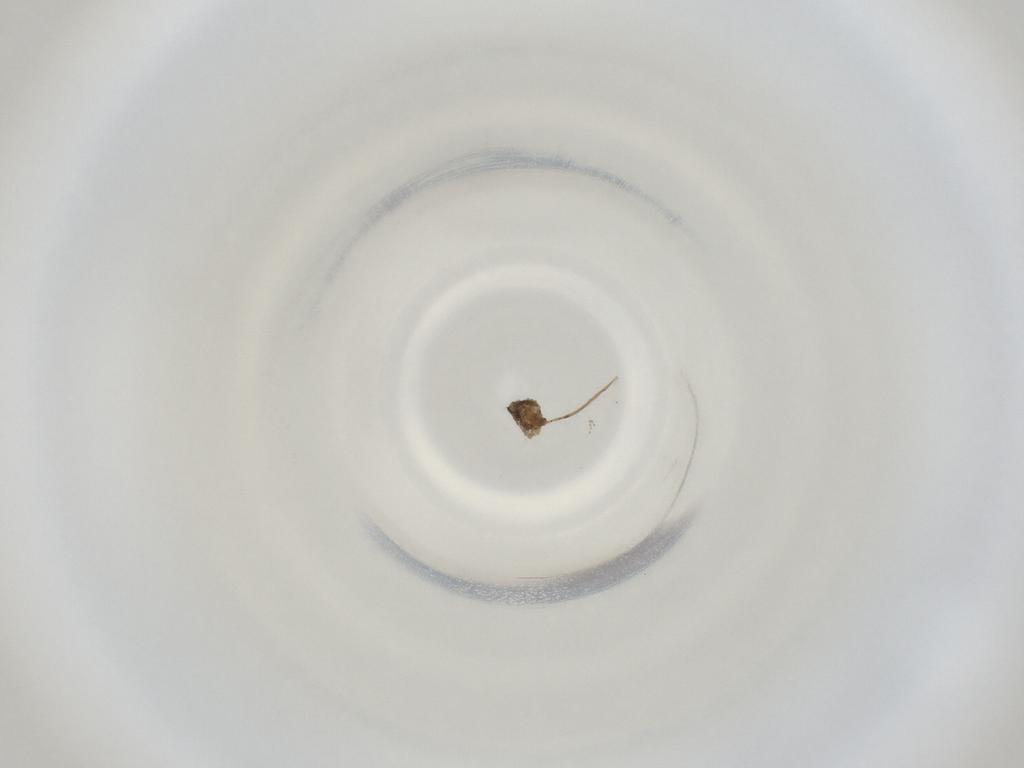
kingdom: Animalia
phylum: Arthropoda
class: Insecta
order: Diptera
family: Cecidomyiidae
